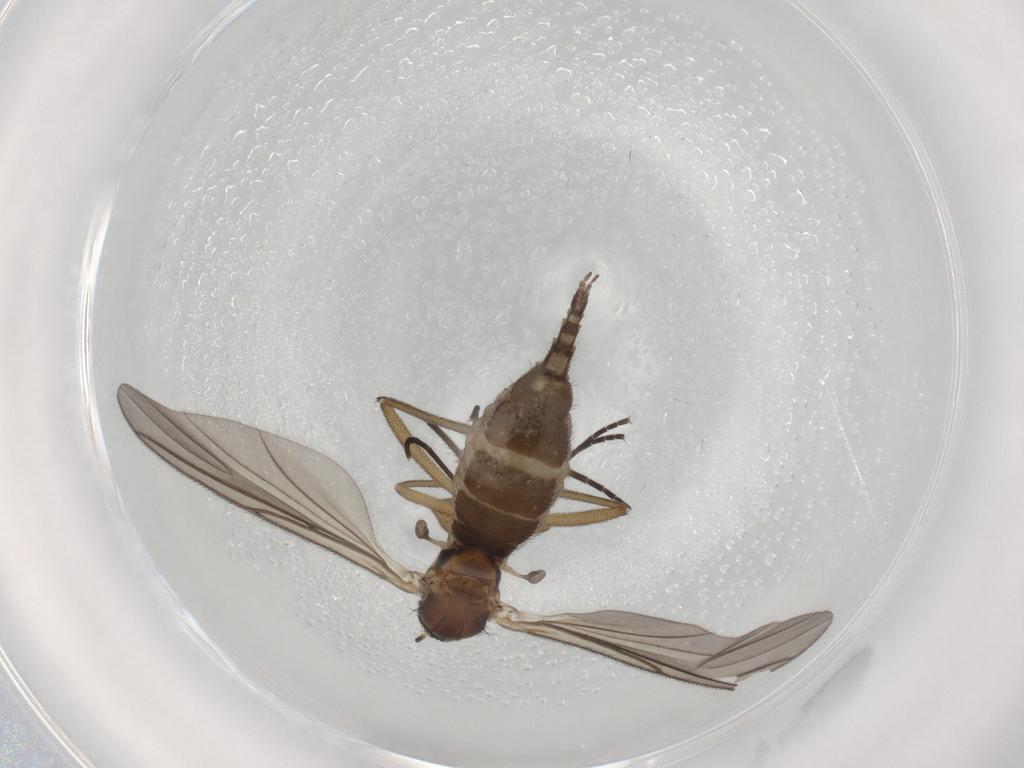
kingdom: Animalia
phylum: Arthropoda
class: Insecta
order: Diptera
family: Sciaridae
